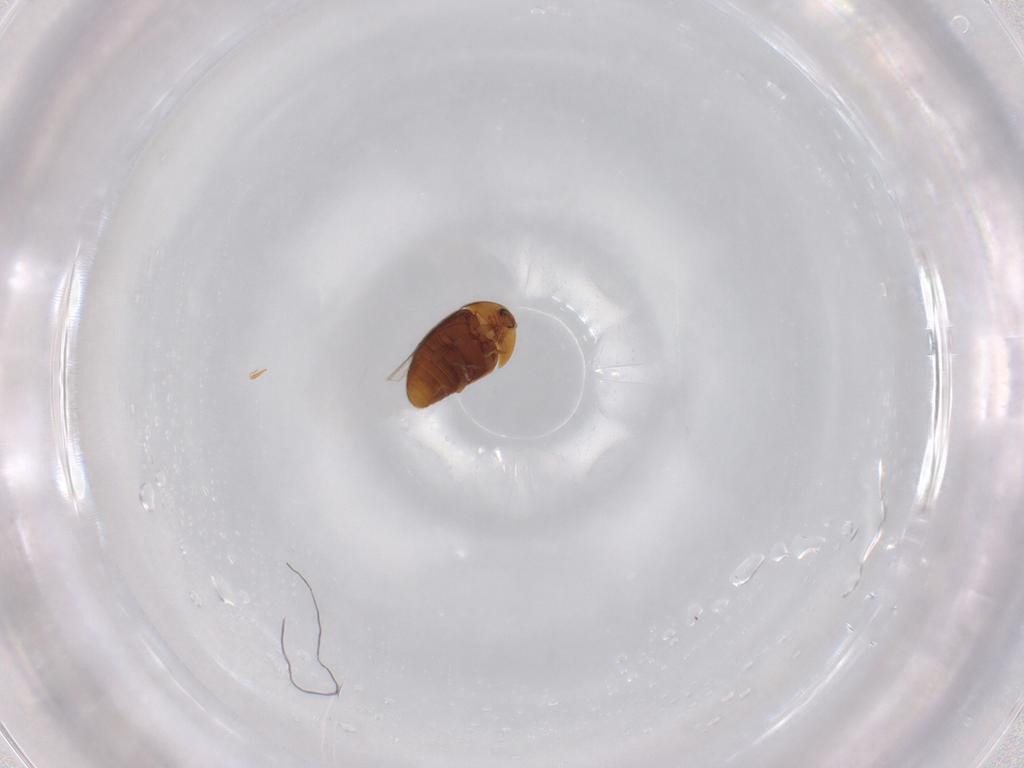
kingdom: Animalia
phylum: Arthropoda
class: Insecta
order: Coleoptera
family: Corylophidae
